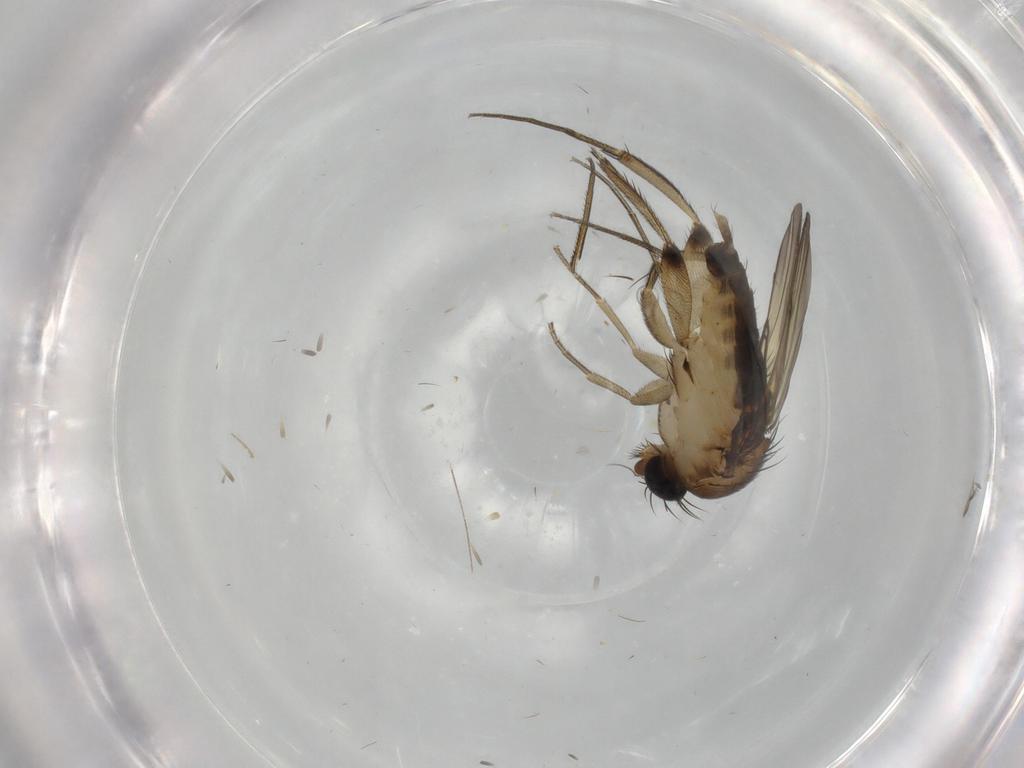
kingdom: Animalia
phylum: Arthropoda
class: Insecta
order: Diptera
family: Phoridae
